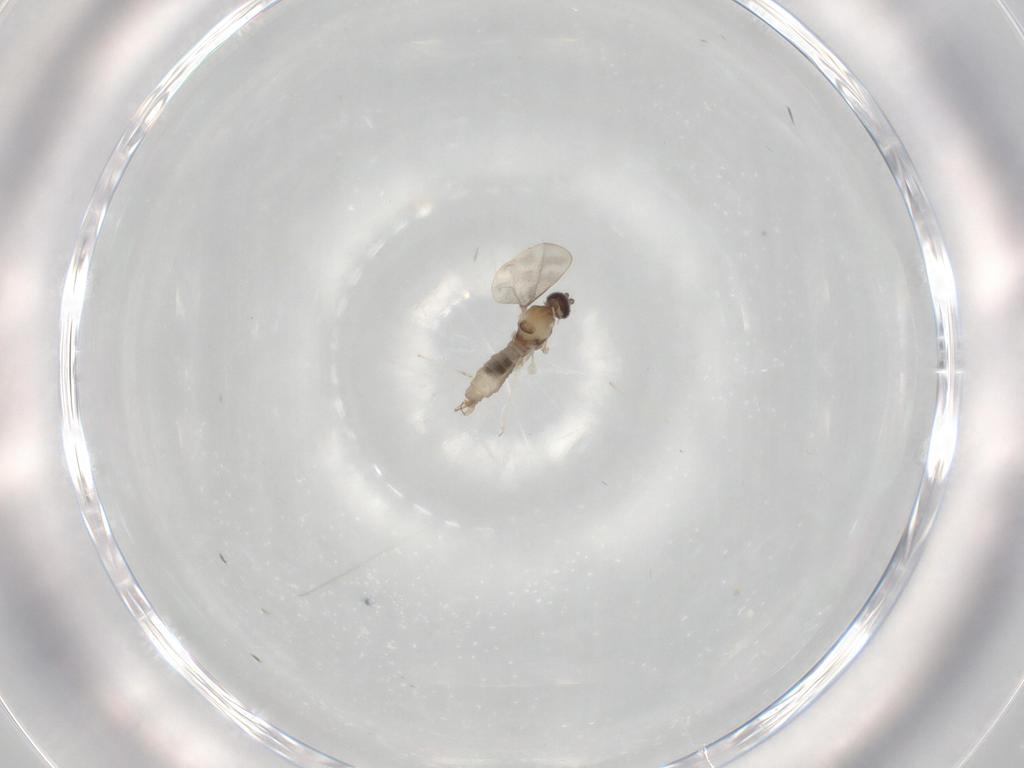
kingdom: Animalia
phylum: Arthropoda
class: Insecta
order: Diptera
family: Cecidomyiidae
